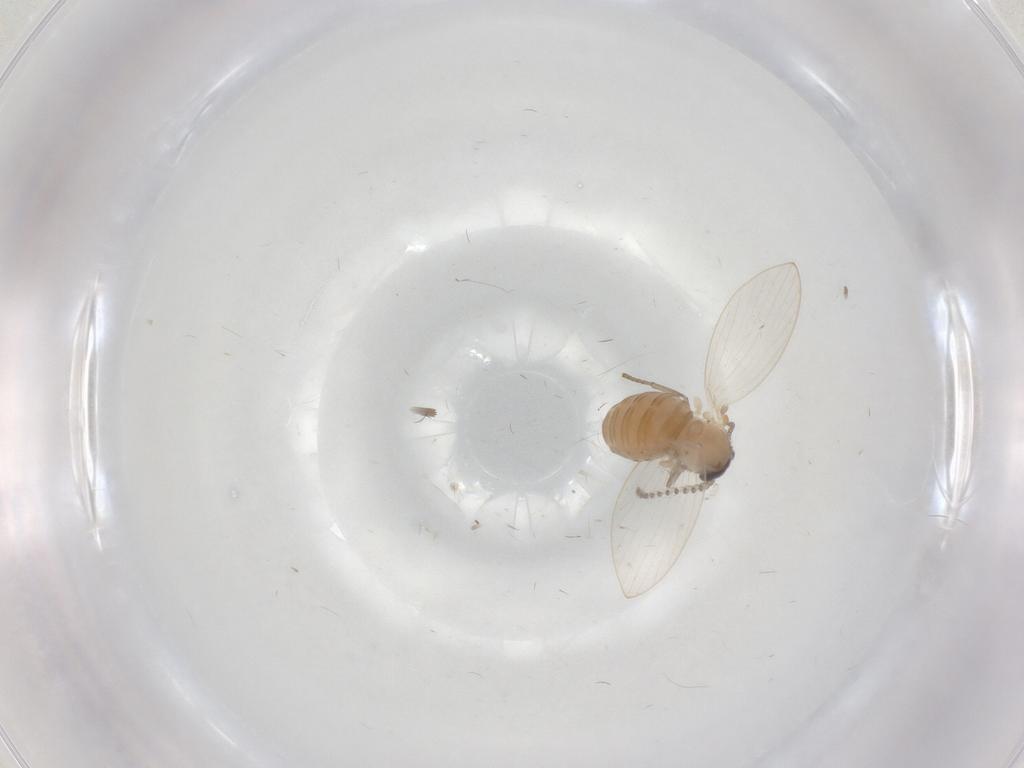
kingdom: Animalia
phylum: Arthropoda
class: Insecta
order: Diptera
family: Psychodidae
